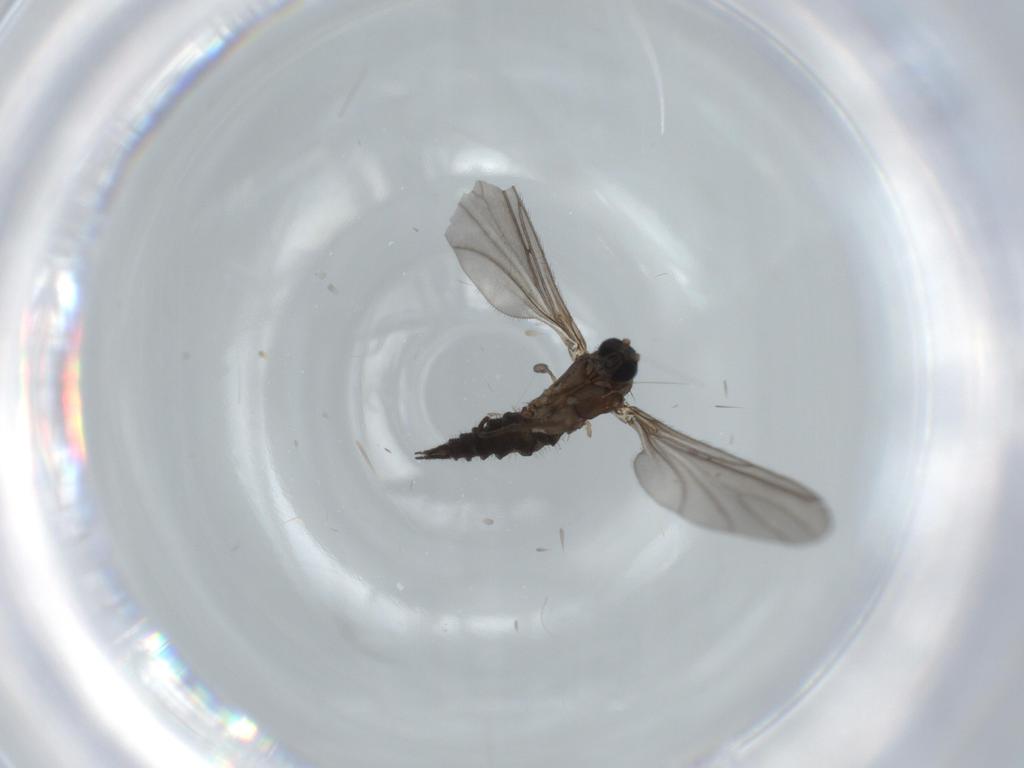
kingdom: Animalia
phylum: Arthropoda
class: Insecta
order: Diptera
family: Sciaridae
